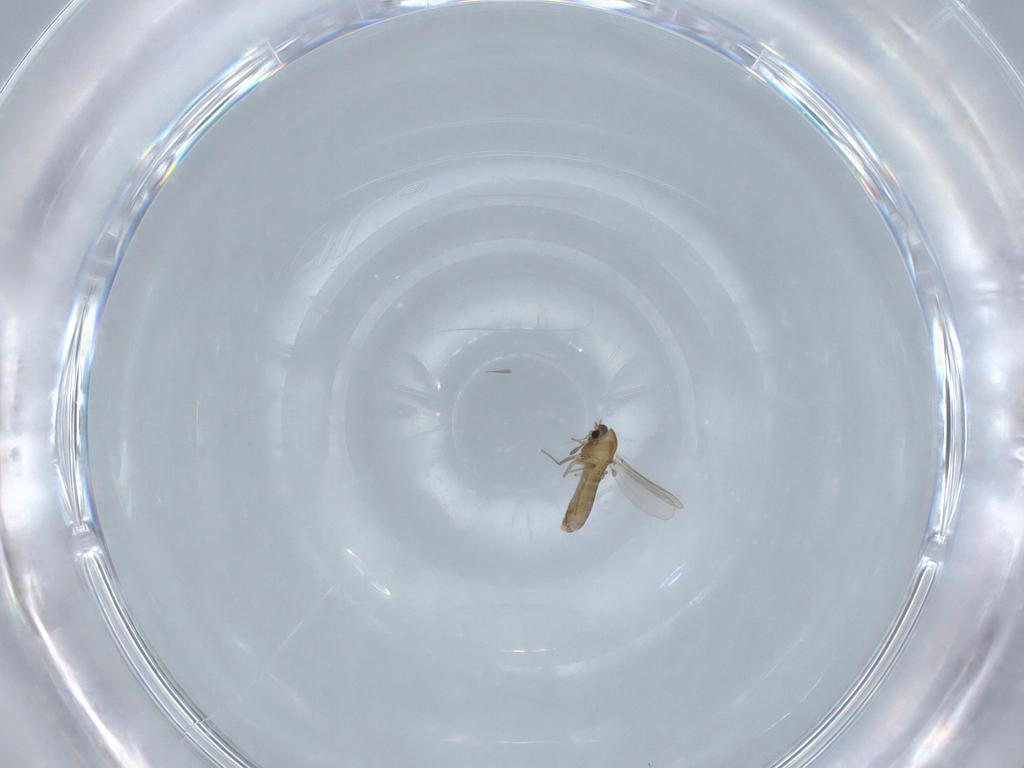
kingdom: Animalia
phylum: Arthropoda
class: Insecta
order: Diptera
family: Chironomidae
